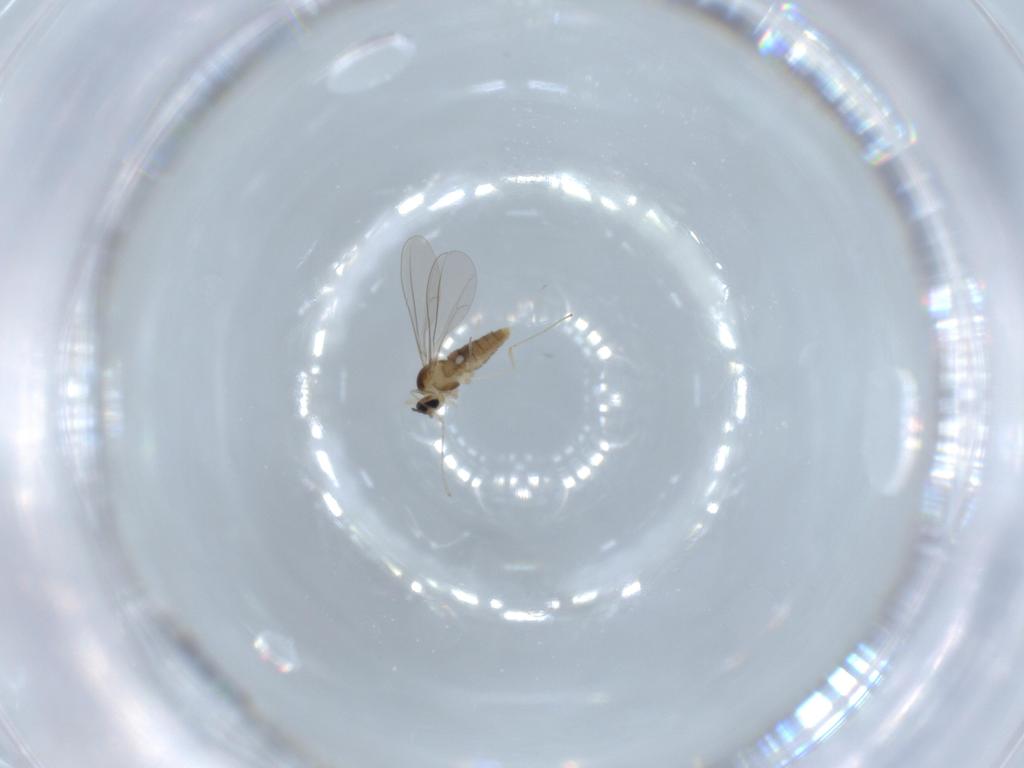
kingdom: Animalia
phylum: Arthropoda
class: Insecta
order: Diptera
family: Cecidomyiidae
